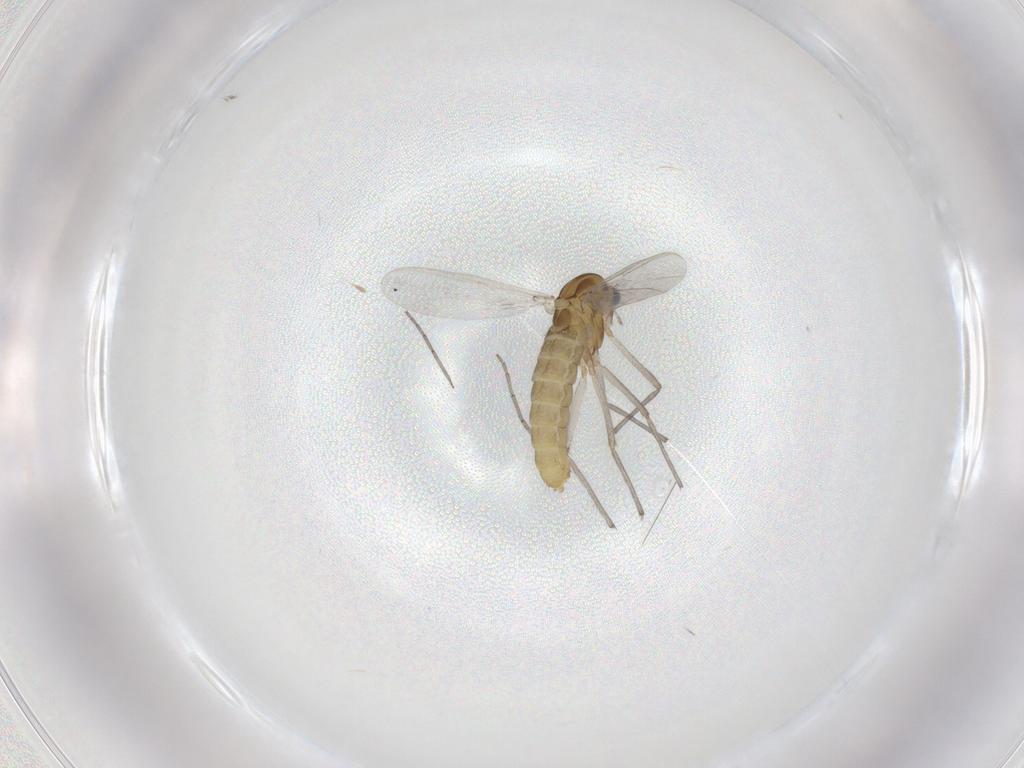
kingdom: Animalia
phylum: Arthropoda
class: Insecta
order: Diptera
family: Chironomidae
